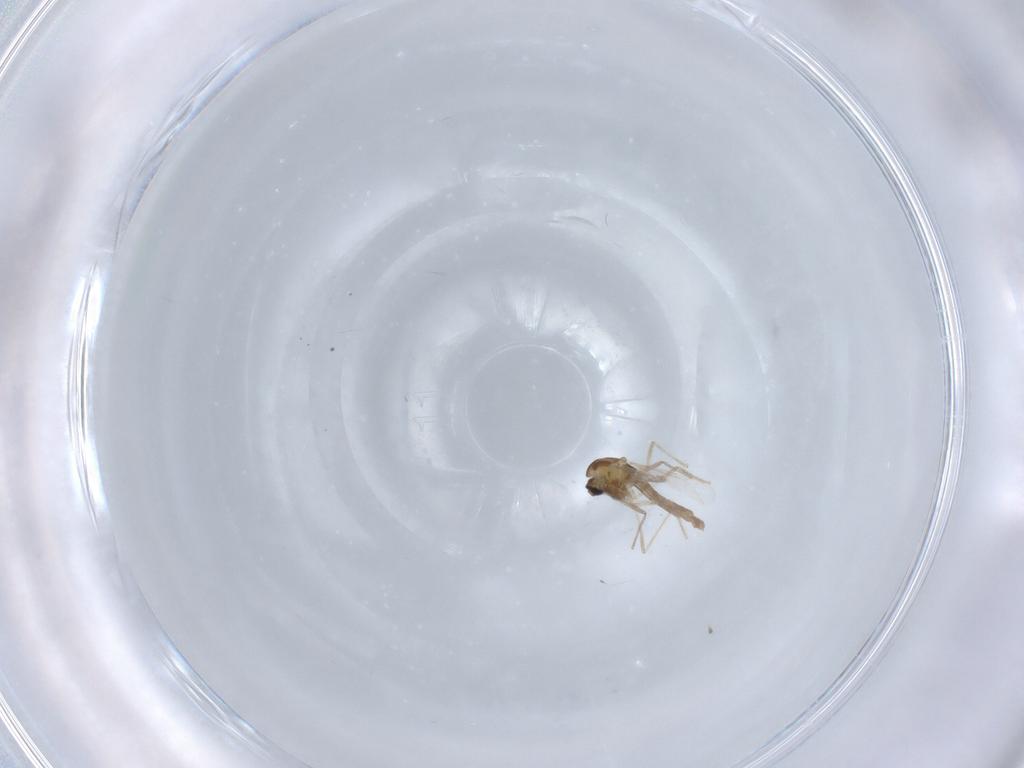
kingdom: Animalia
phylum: Arthropoda
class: Insecta
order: Diptera
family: Chironomidae
